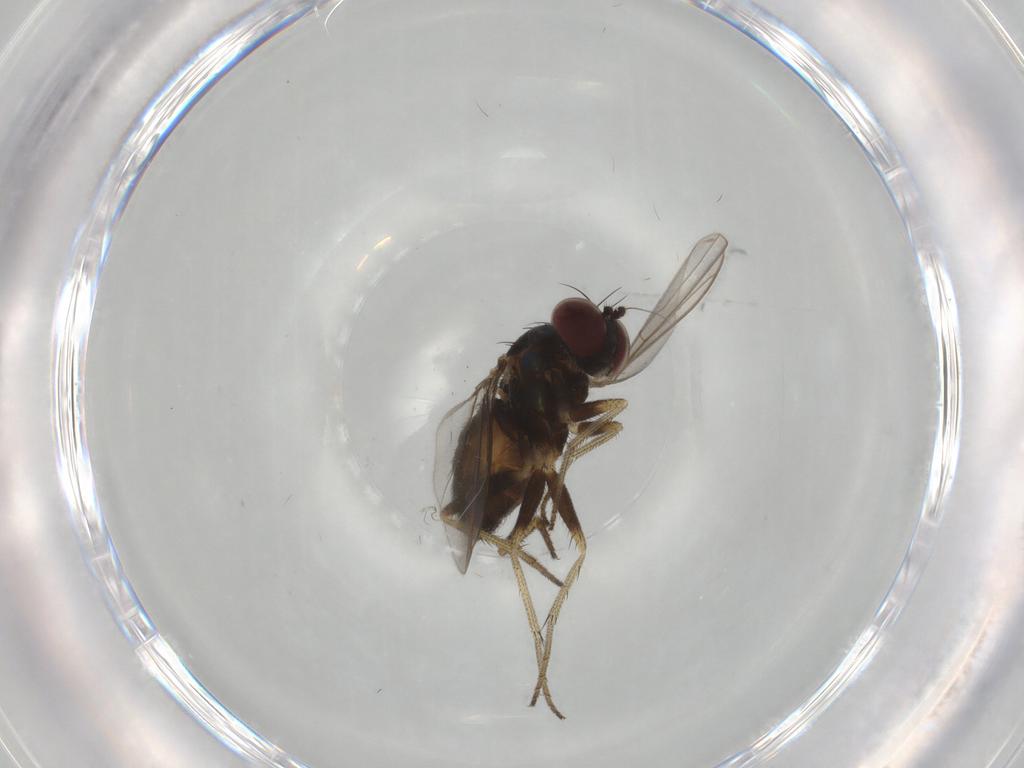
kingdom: Animalia
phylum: Arthropoda
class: Insecta
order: Diptera
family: Dolichopodidae
